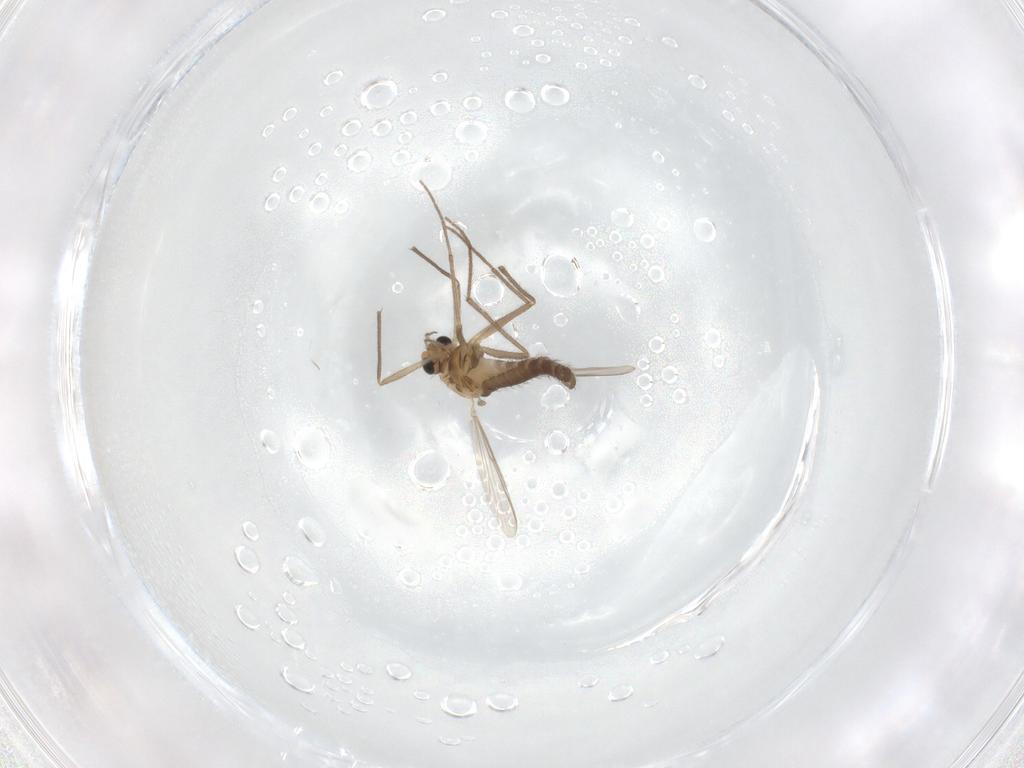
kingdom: Animalia
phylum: Arthropoda
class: Insecta
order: Diptera
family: Chironomidae
